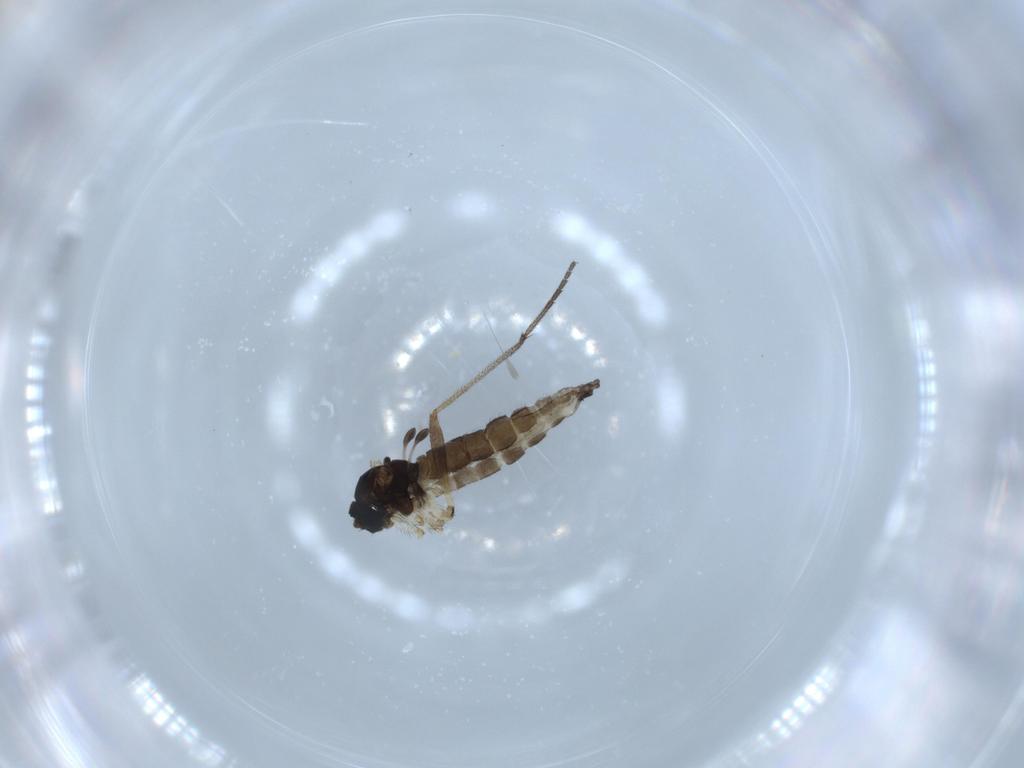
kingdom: Animalia
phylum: Arthropoda
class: Insecta
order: Diptera
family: Sciaridae
